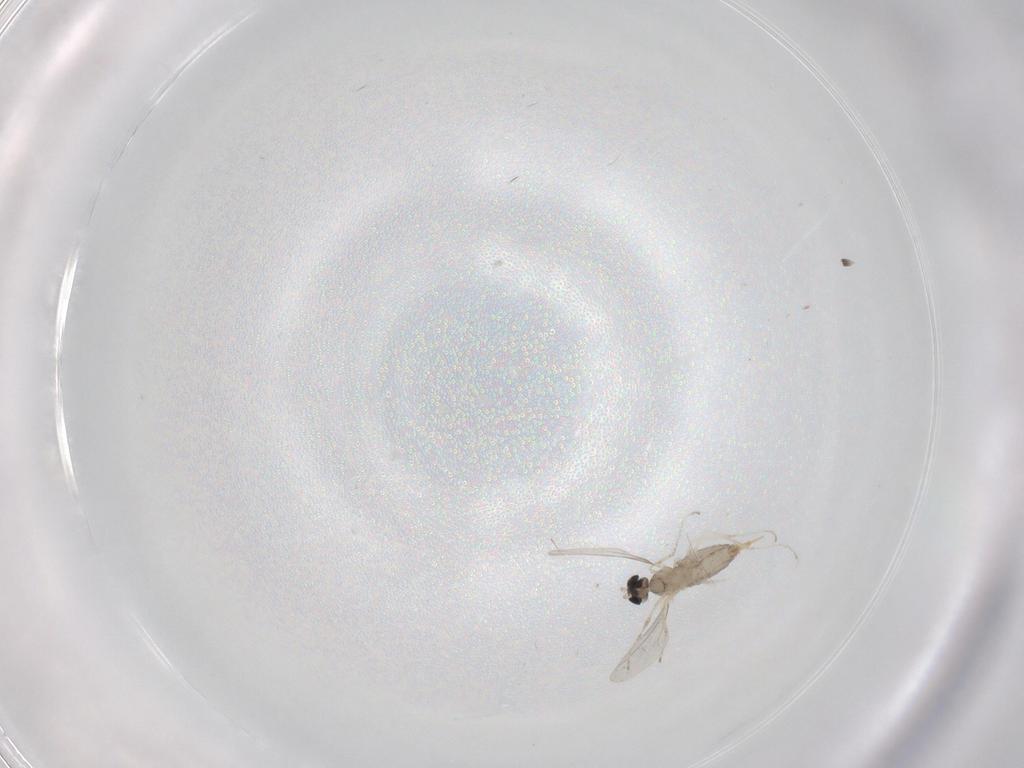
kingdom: Animalia
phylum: Arthropoda
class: Insecta
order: Diptera
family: Cecidomyiidae
